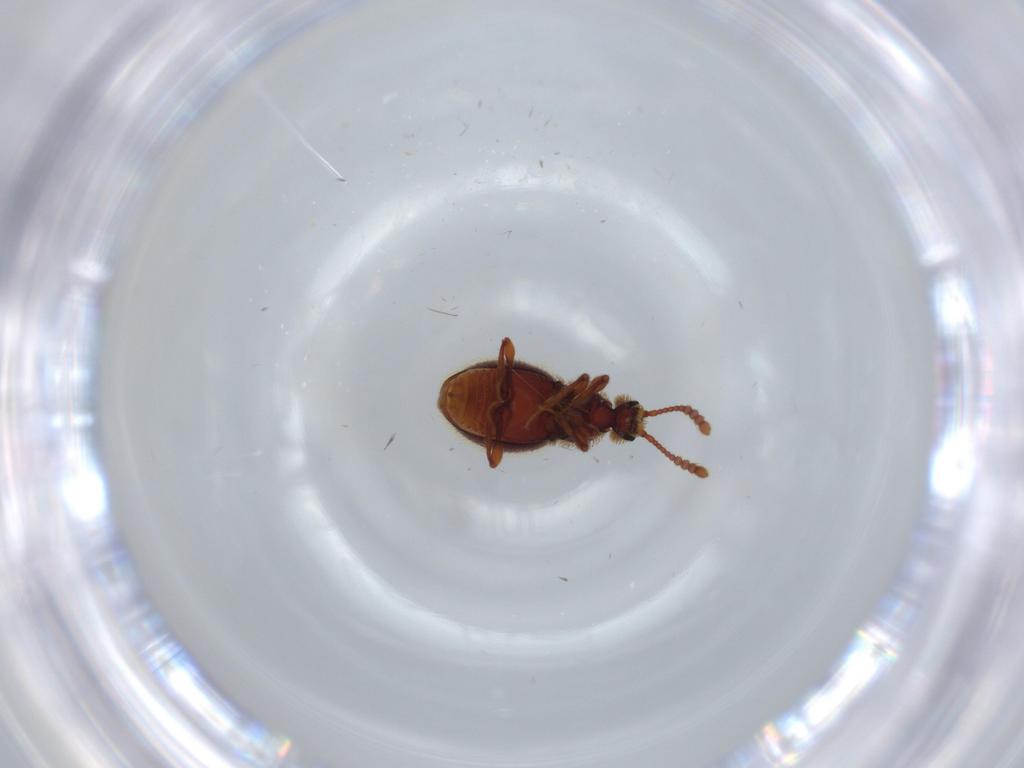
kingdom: Animalia
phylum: Arthropoda
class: Insecta
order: Coleoptera
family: Scraptiidae
